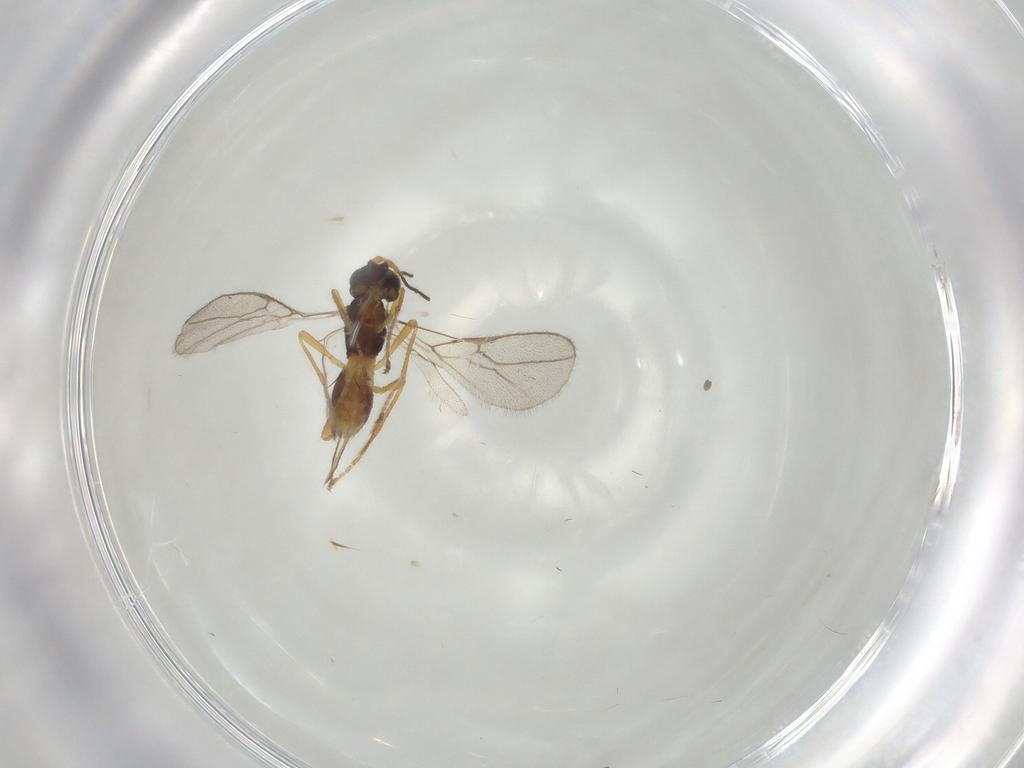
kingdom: Animalia
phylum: Arthropoda
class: Insecta
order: Hymenoptera
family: Braconidae
